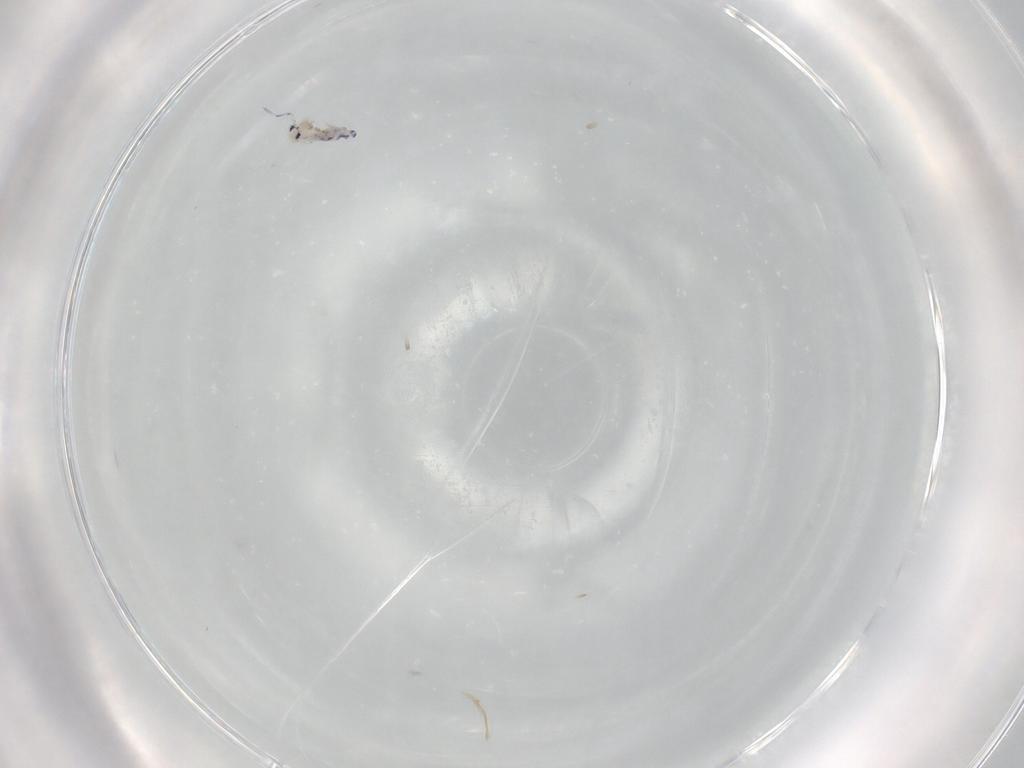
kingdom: Animalia
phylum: Arthropoda
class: Collembola
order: Entomobryomorpha
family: Entomobryidae
